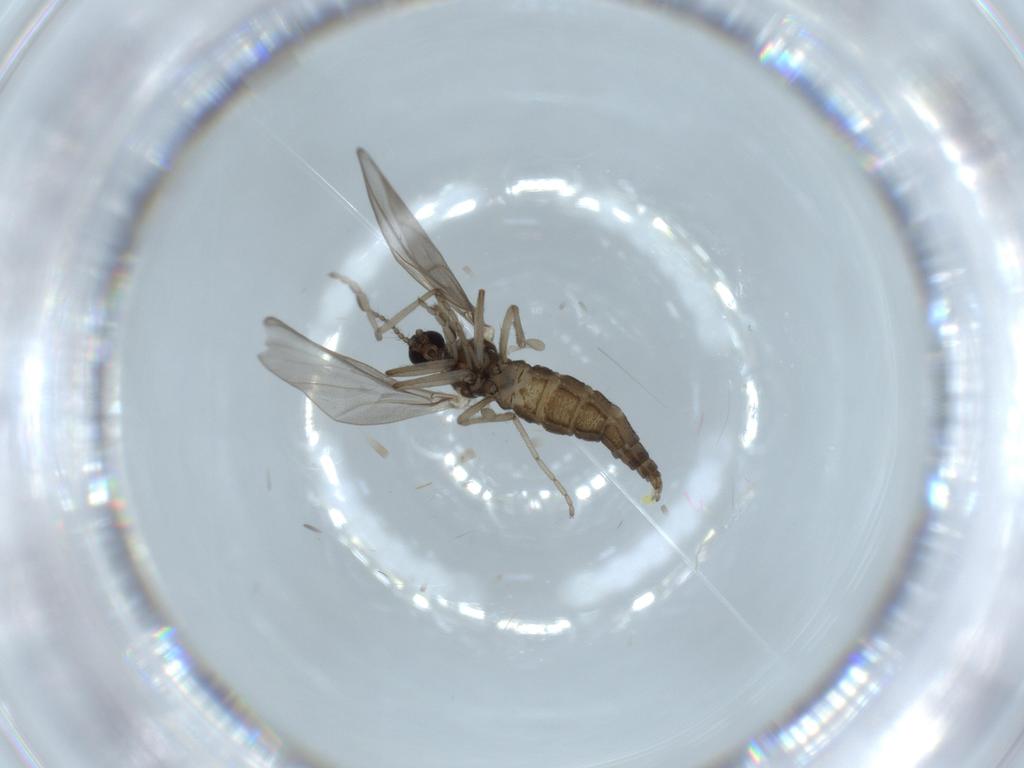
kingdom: Animalia
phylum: Arthropoda
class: Insecta
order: Diptera
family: Cecidomyiidae
